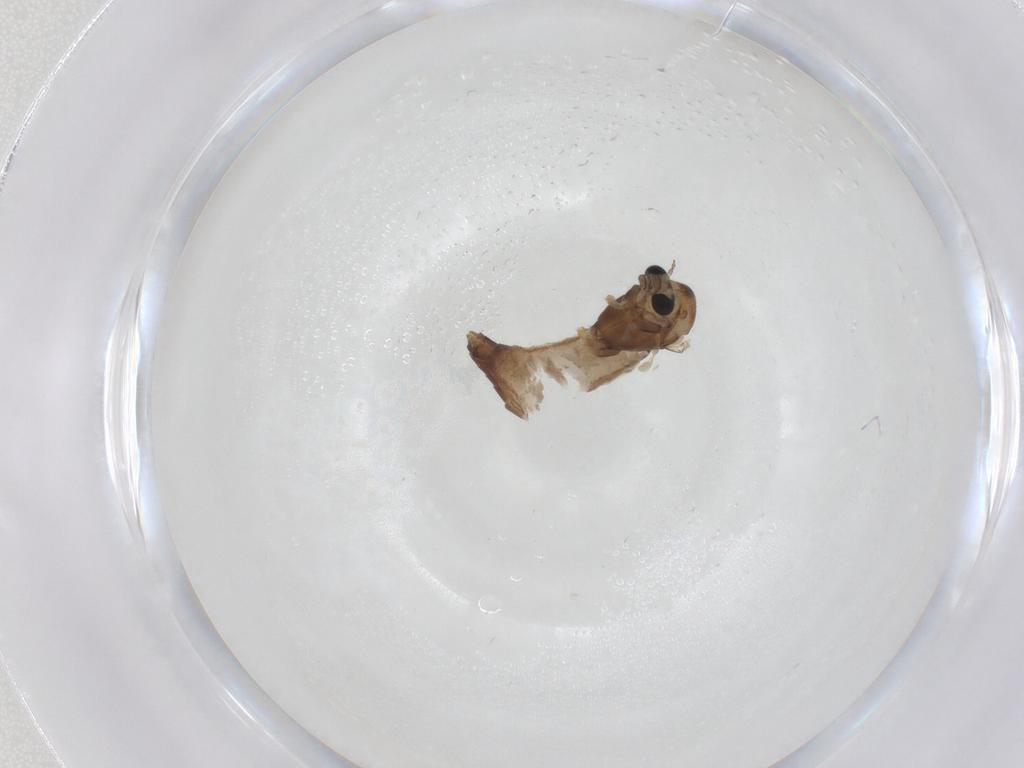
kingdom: Animalia
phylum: Arthropoda
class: Insecta
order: Diptera
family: Chironomidae
